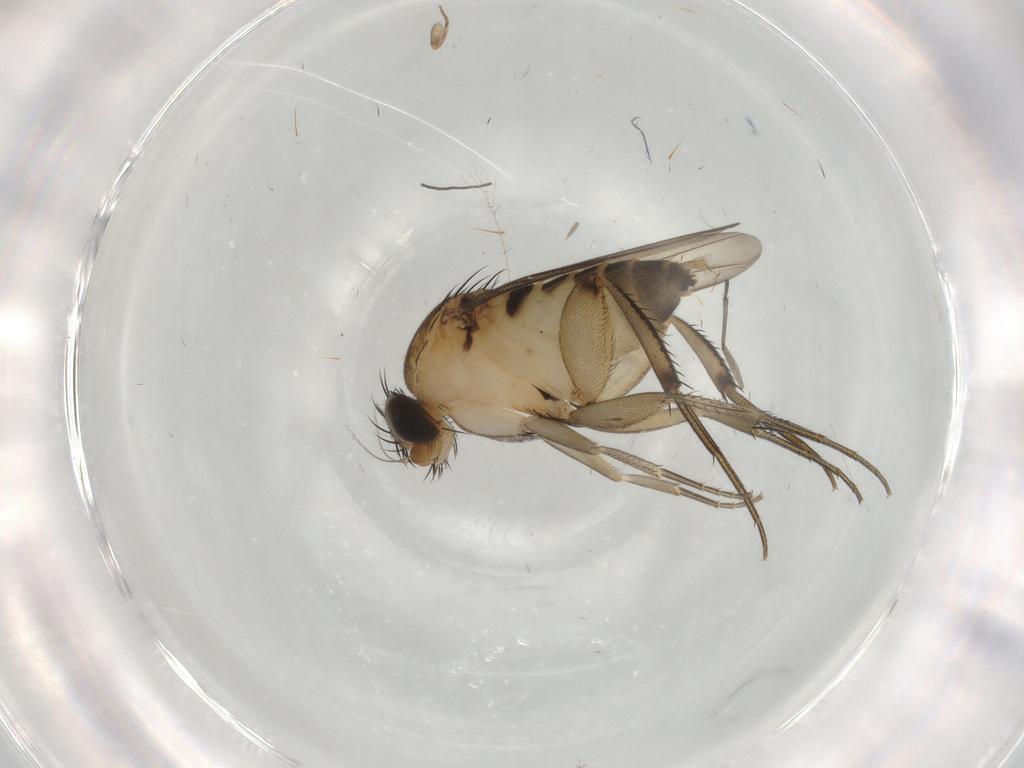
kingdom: Animalia
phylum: Arthropoda
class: Insecta
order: Diptera
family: Phoridae
